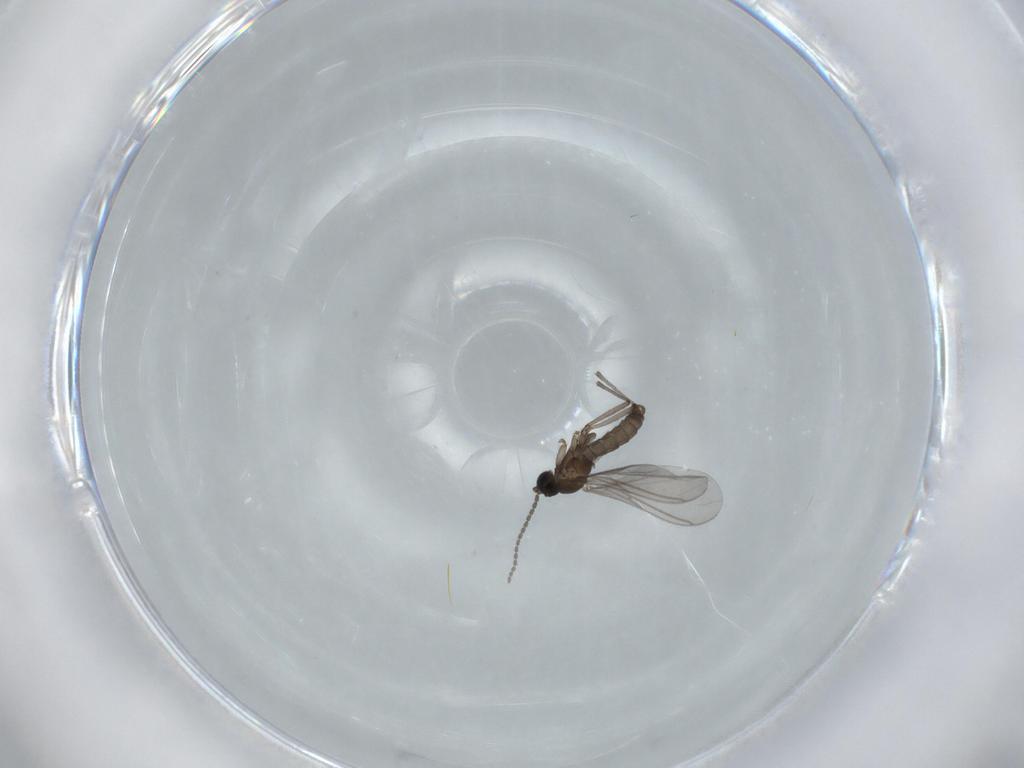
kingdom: Animalia
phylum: Arthropoda
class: Insecta
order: Diptera
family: Sciaridae
